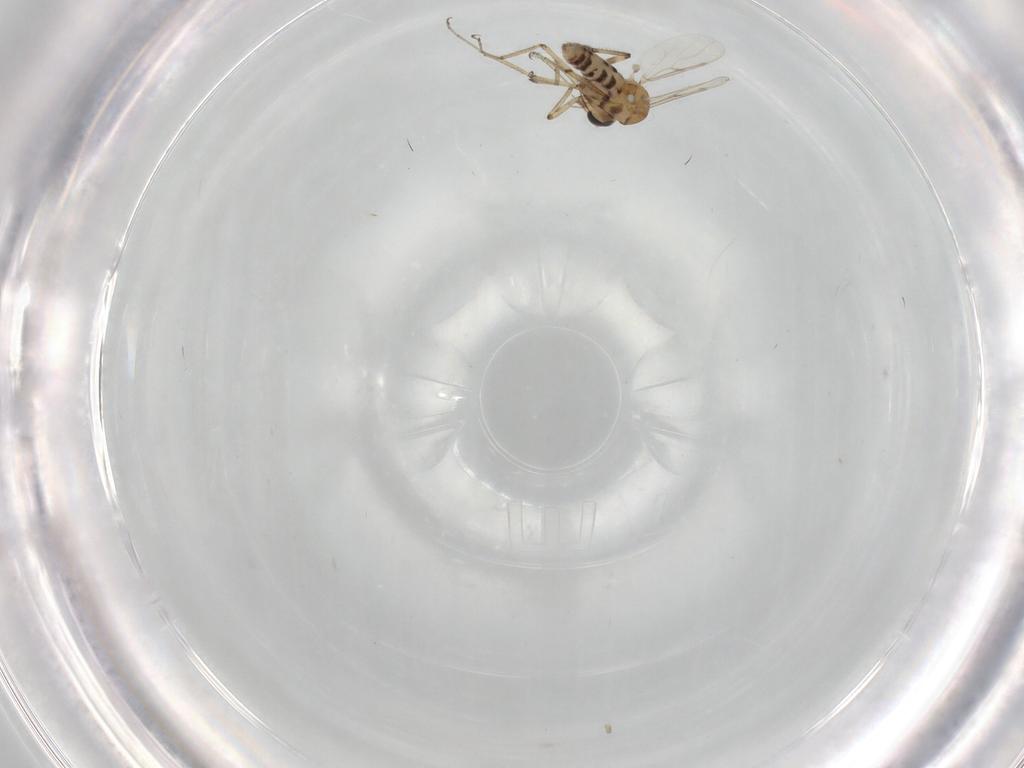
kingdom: Animalia
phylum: Arthropoda
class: Insecta
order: Diptera
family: Ceratopogonidae
